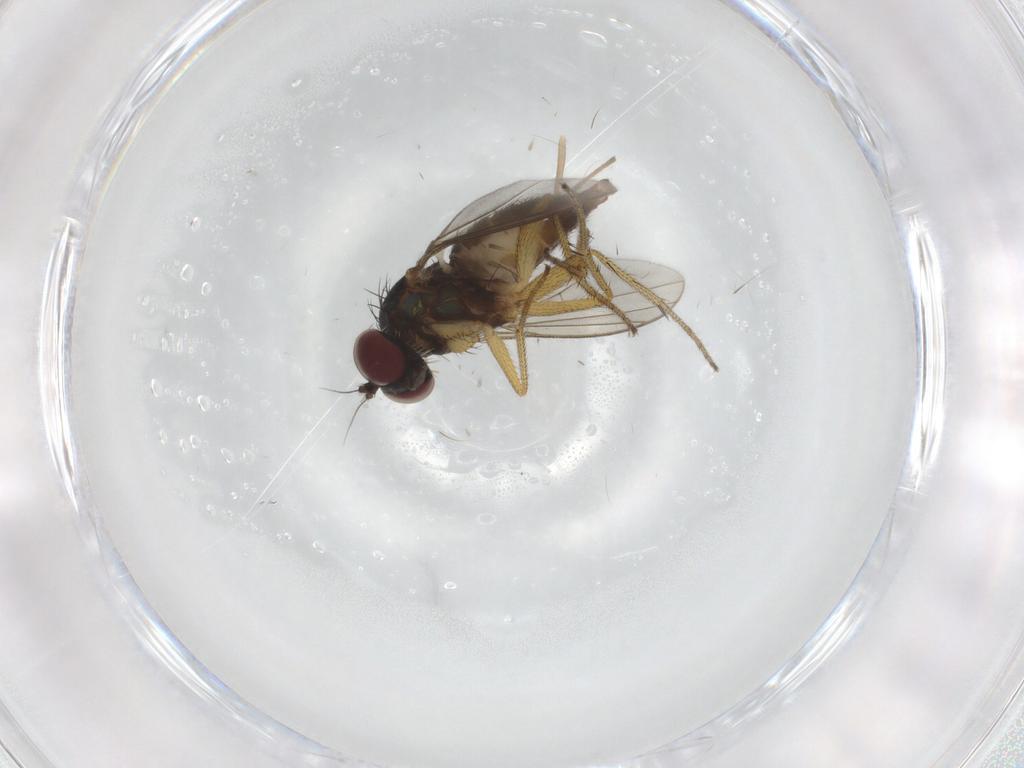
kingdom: Animalia
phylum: Arthropoda
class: Insecta
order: Diptera
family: Chironomidae
